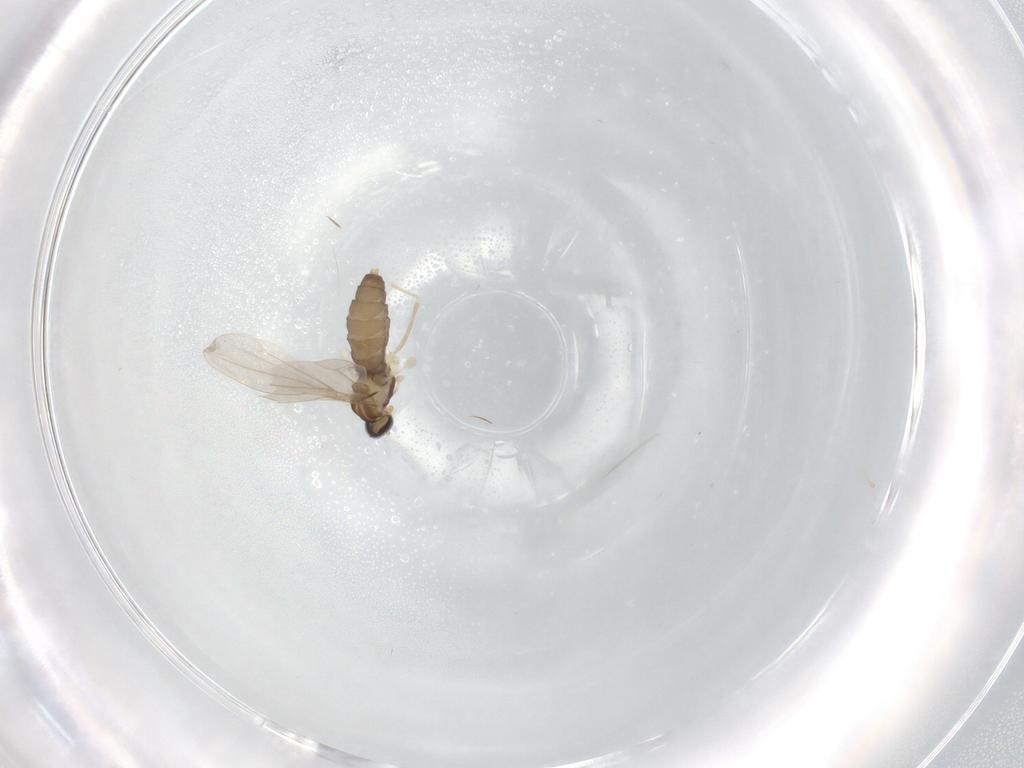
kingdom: Animalia
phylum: Arthropoda
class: Insecta
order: Diptera
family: Cecidomyiidae
